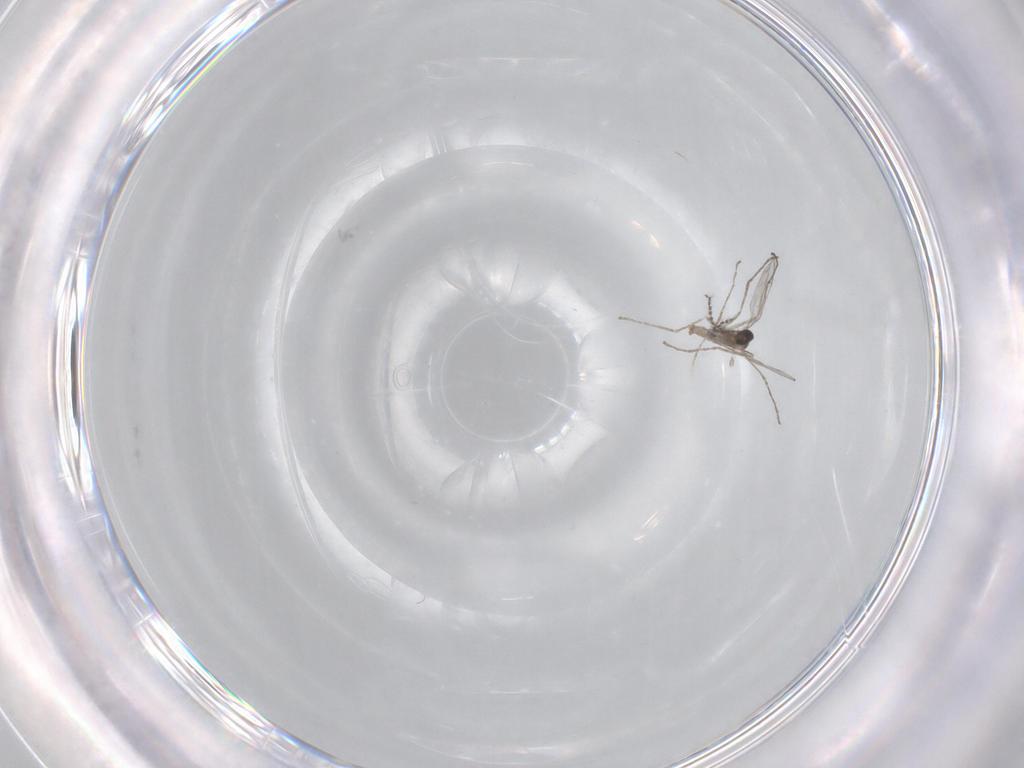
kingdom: Animalia
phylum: Arthropoda
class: Insecta
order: Diptera
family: Cecidomyiidae
